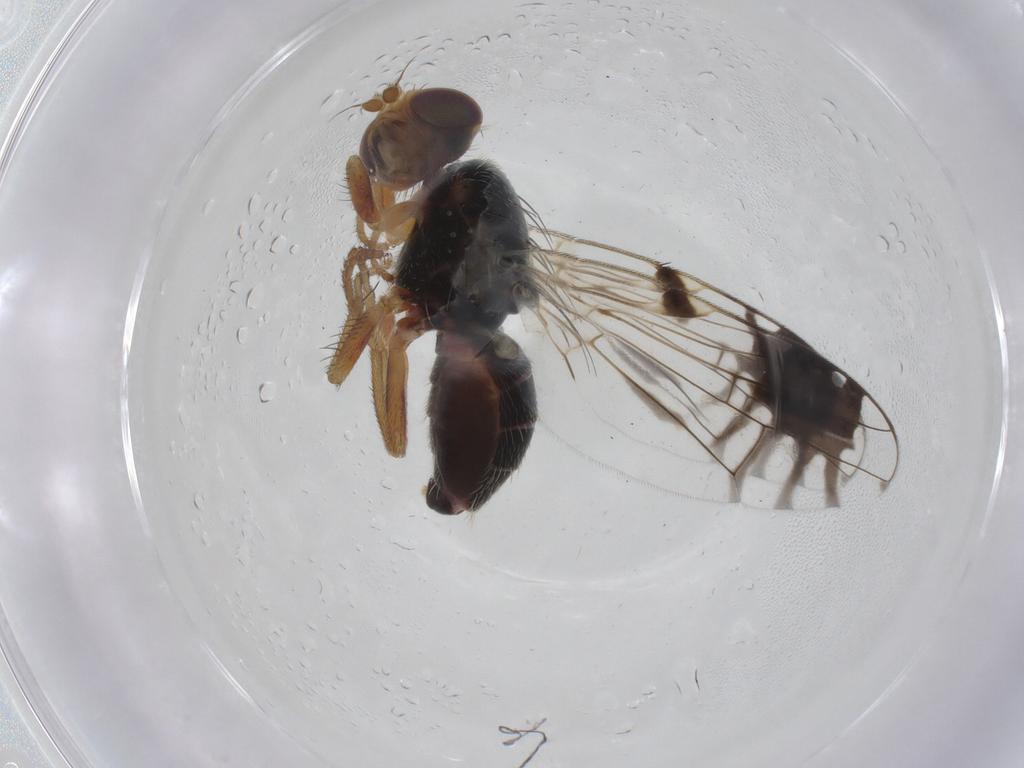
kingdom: Animalia
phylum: Arthropoda
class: Insecta
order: Diptera
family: Tephritidae
